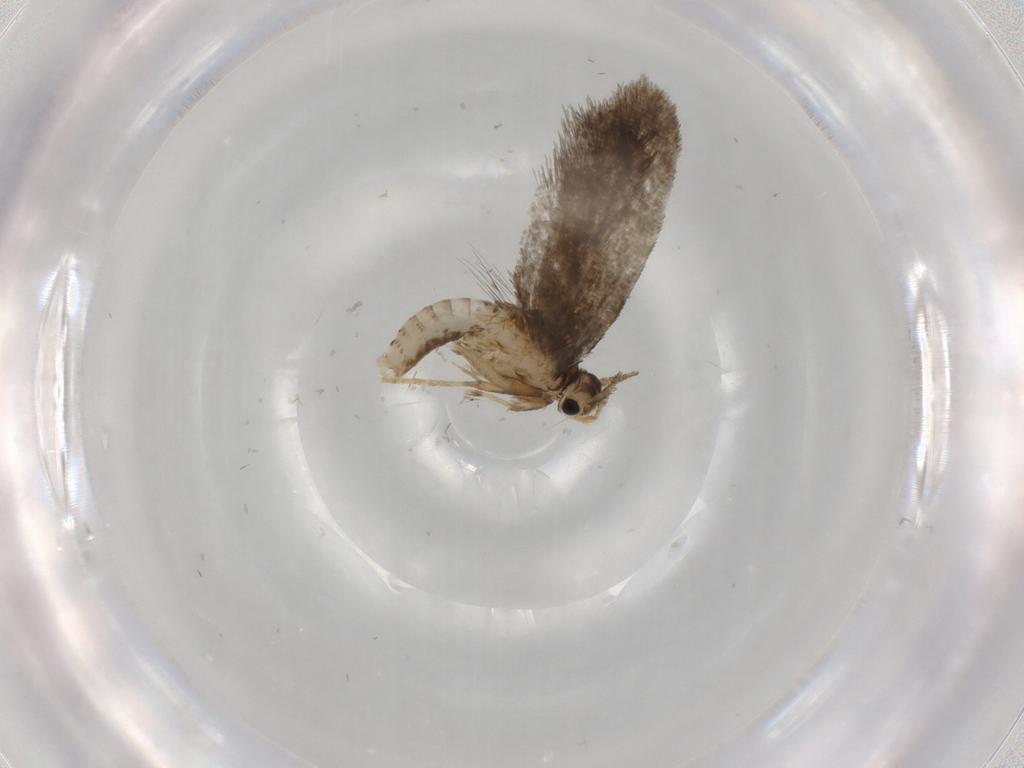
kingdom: Animalia
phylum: Arthropoda
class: Insecta
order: Lepidoptera
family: Psychidae
